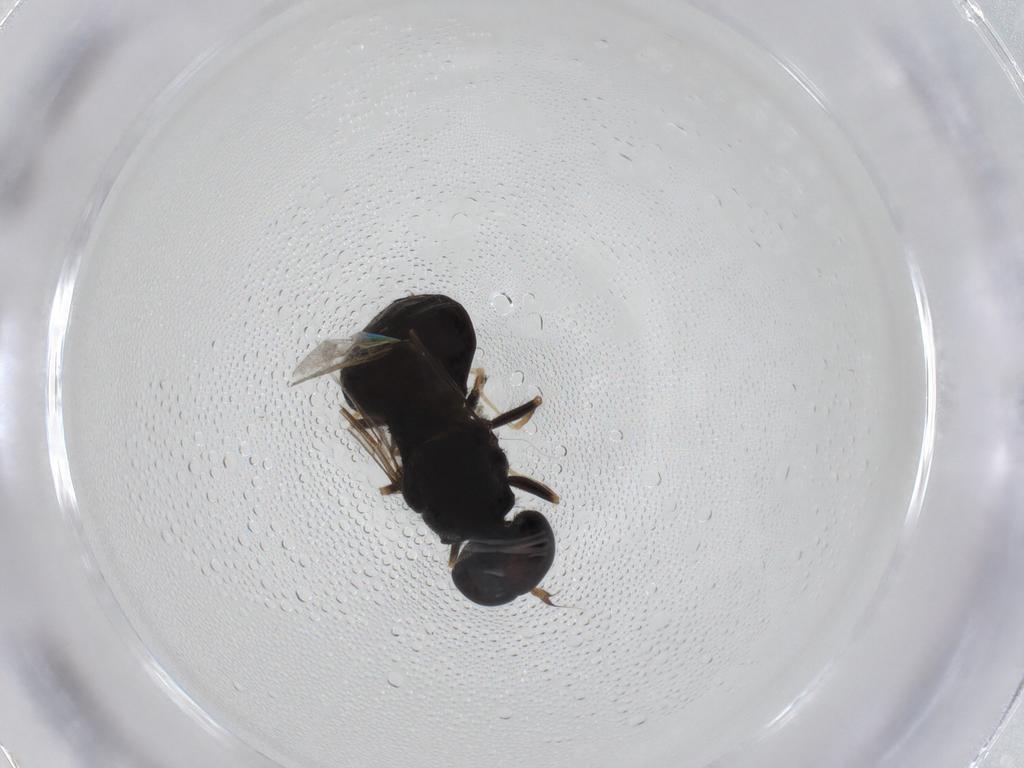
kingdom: Animalia
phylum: Arthropoda
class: Insecta
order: Diptera
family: Stratiomyidae
